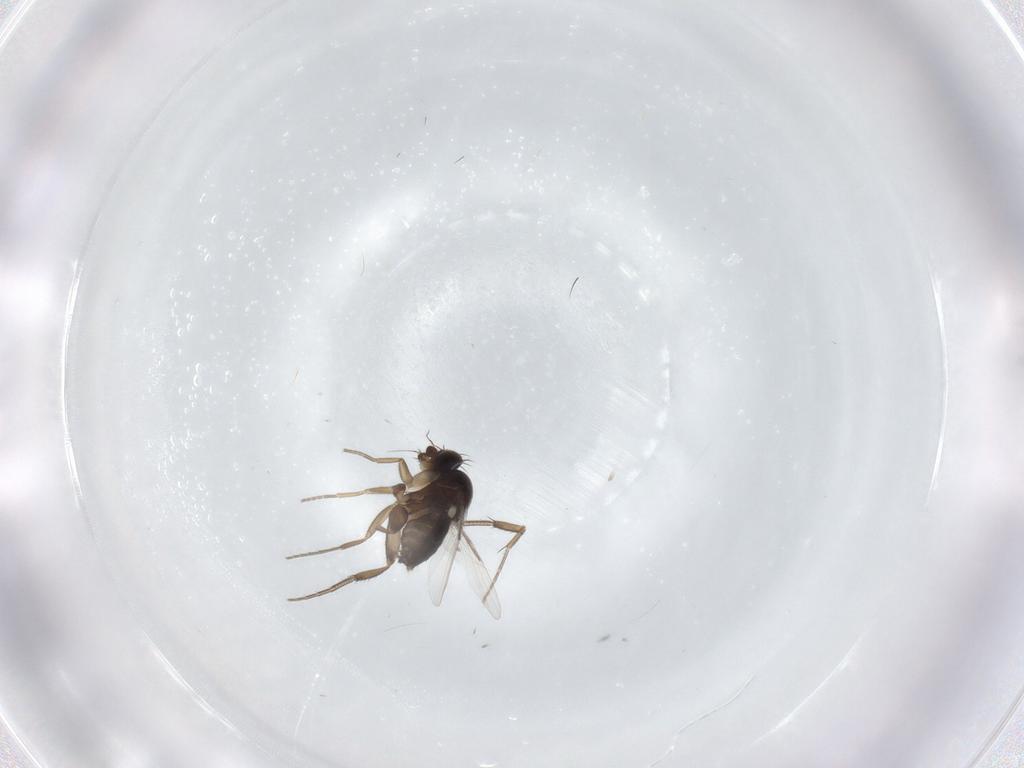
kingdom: Animalia
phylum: Arthropoda
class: Insecta
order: Diptera
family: Phoridae
